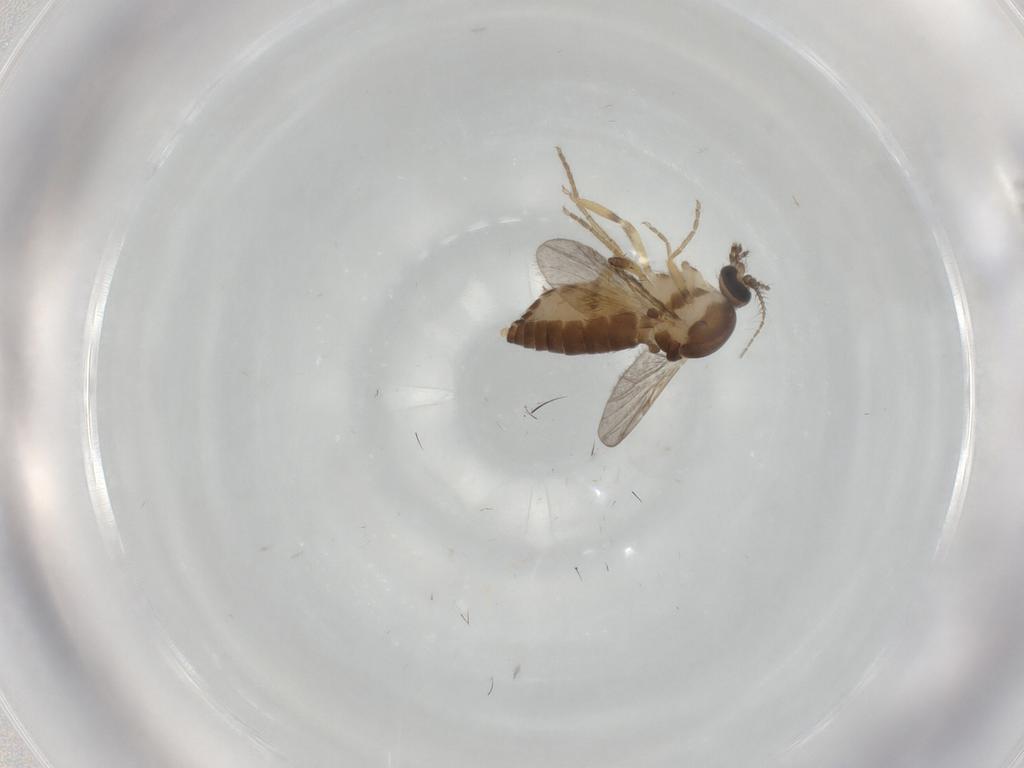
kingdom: Animalia
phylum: Arthropoda
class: Insecta
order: Diptera
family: Ceratopogonidae
